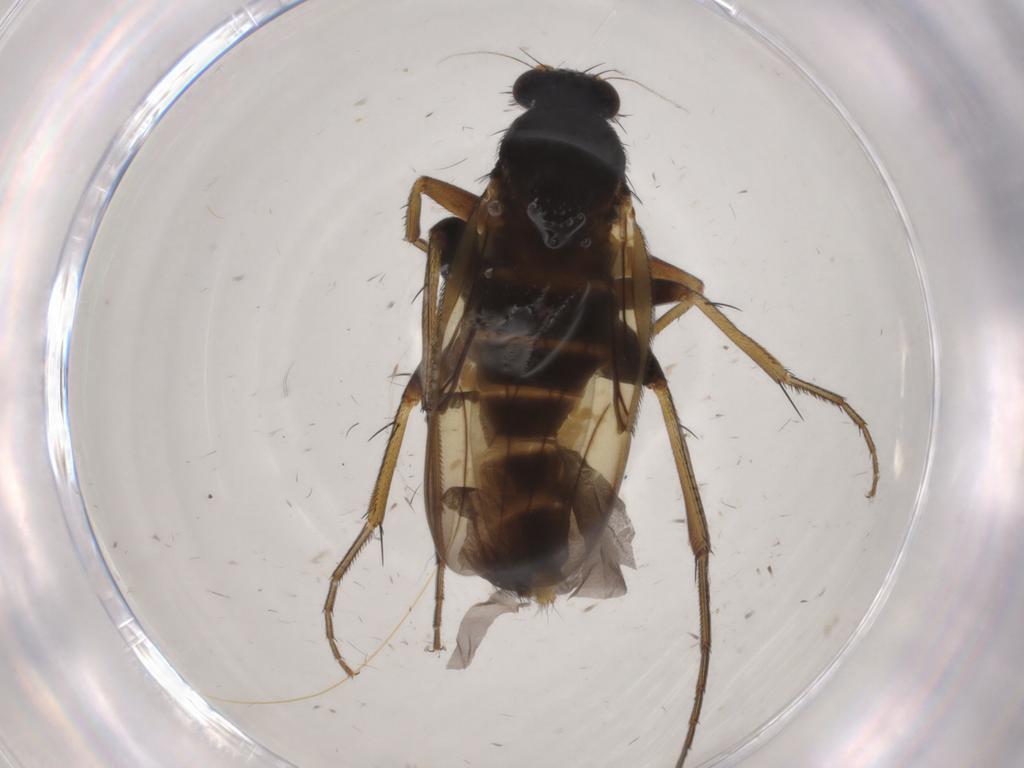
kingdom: Animalia
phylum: Arthropoda
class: Insecta
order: Diptera
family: Phoridae
